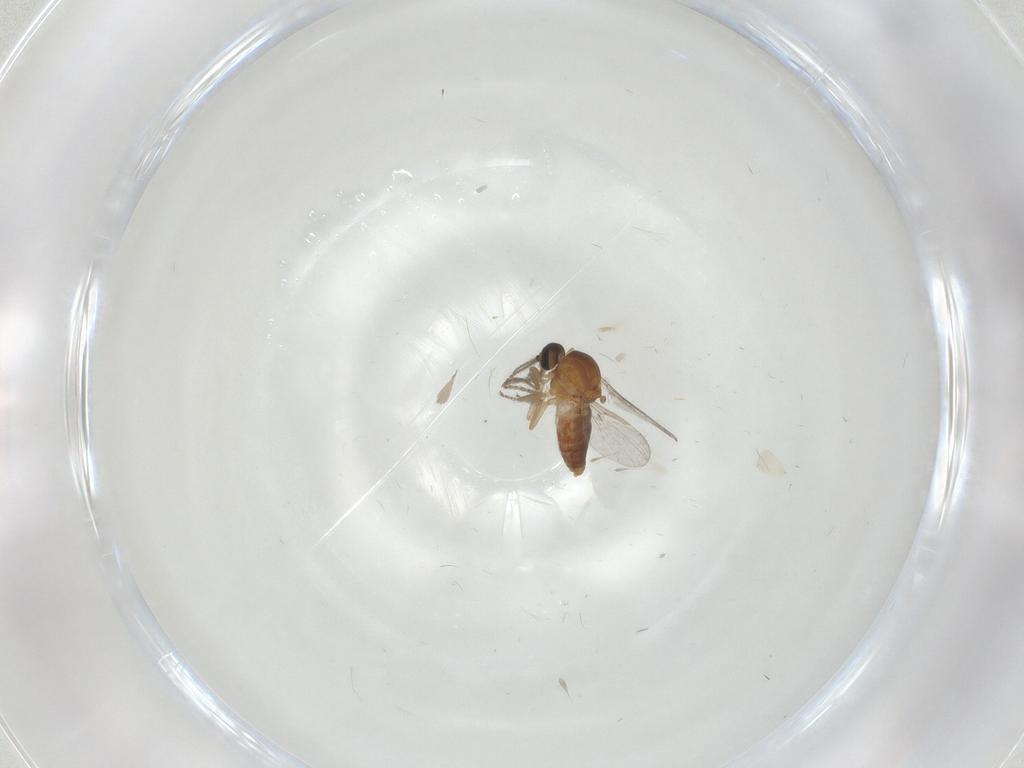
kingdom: Animalia
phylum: Arthropoda
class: Insecta
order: Diptera
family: Ceratopogonidae
